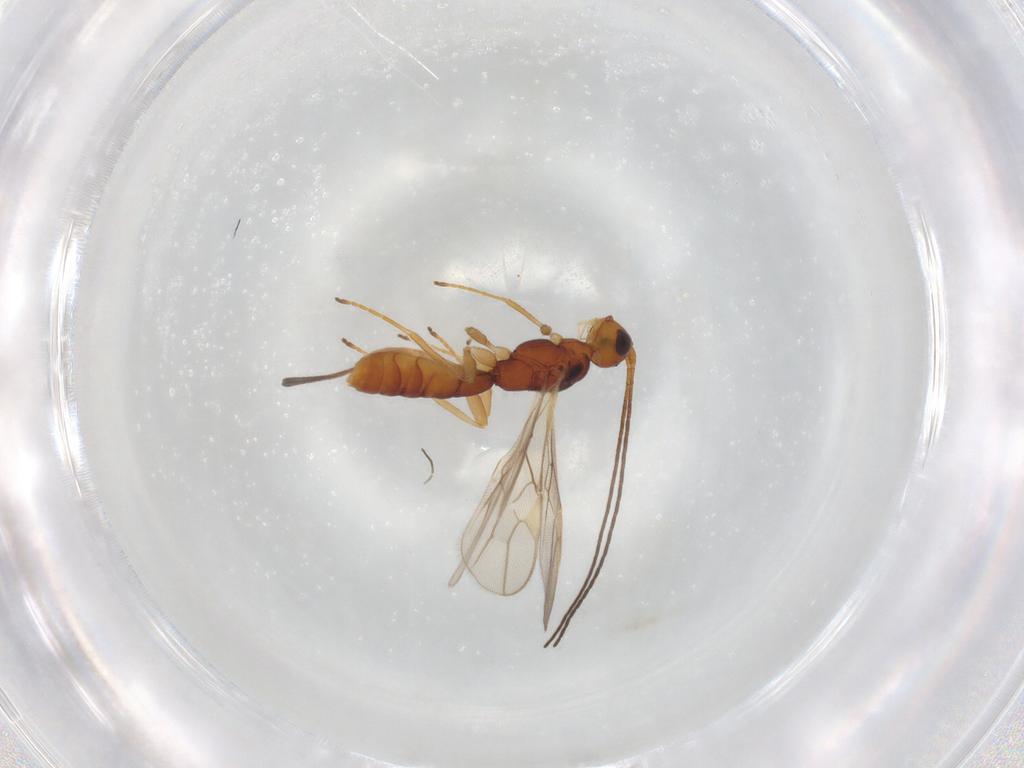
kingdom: Animalia
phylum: Arthropoda
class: Insecta
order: Hymenoptera
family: Braconidae
